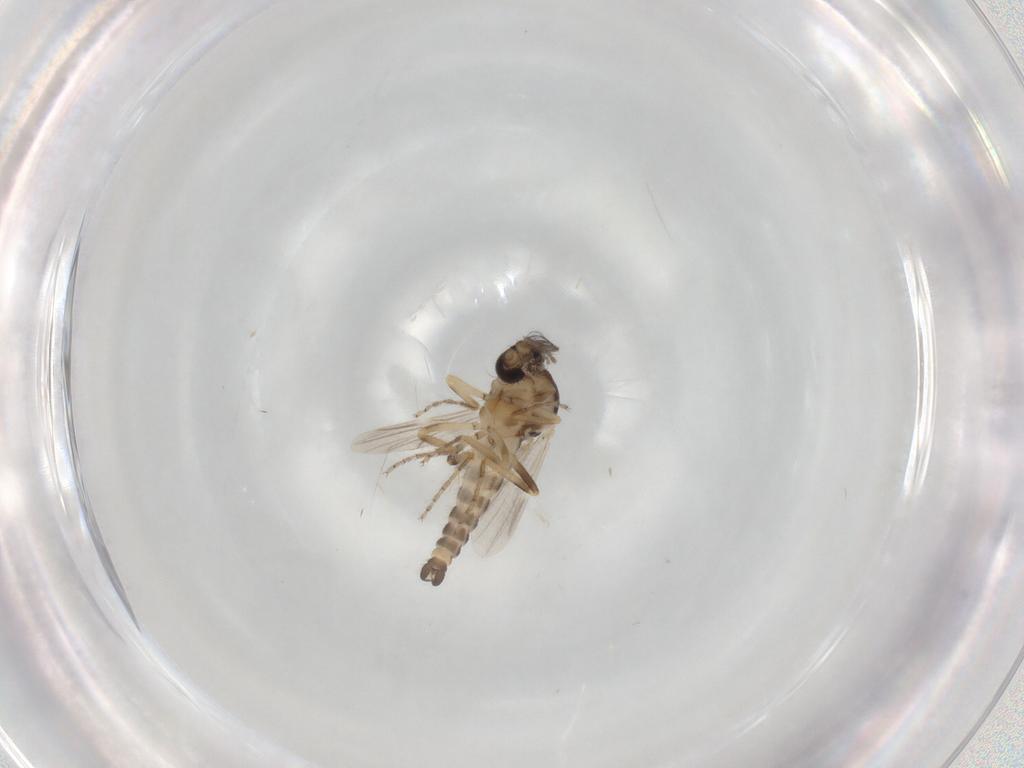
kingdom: Animalia
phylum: Arthropoda
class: Insecta
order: Diptera
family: Ceratopogonidae
